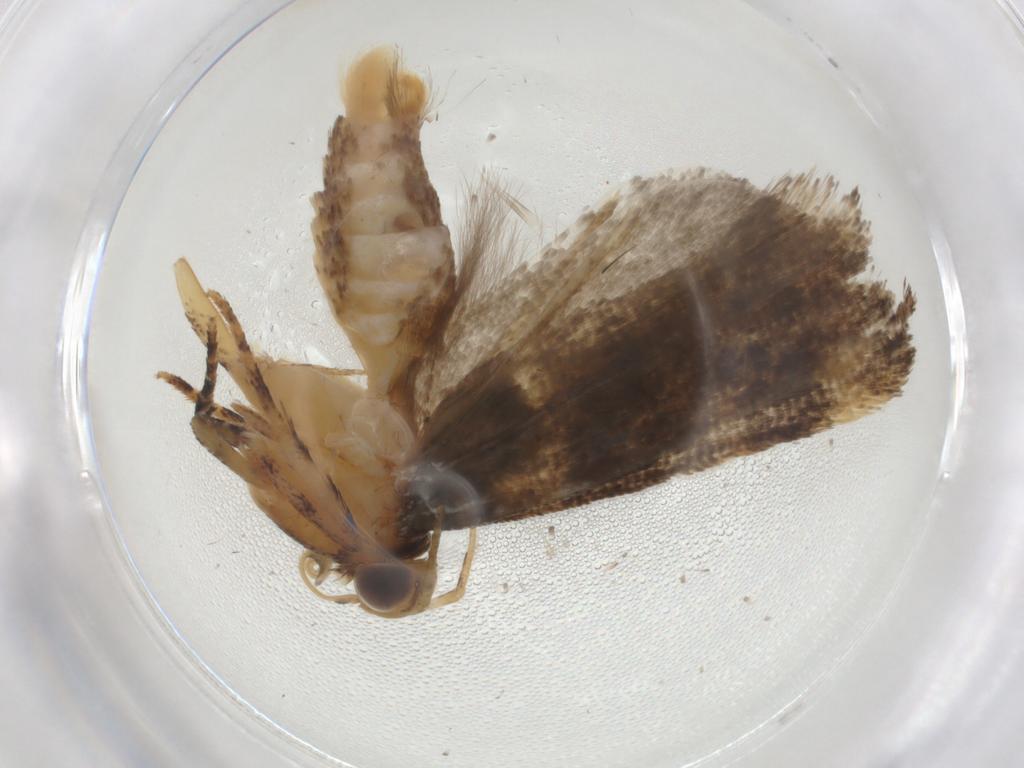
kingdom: Animalia
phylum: Arthropoda
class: Insecta
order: Lepidoptera
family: Gelechiidae
